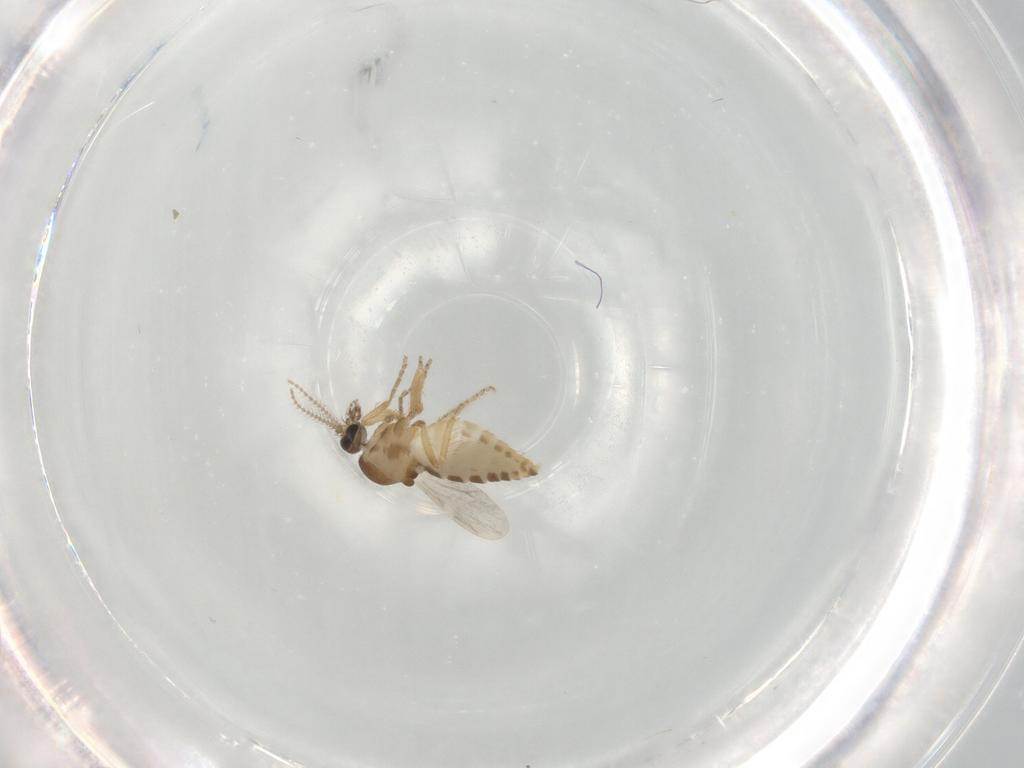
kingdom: Animalia
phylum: Arthropoda
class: Insecta
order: Diptera
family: Ceratopogonidae
